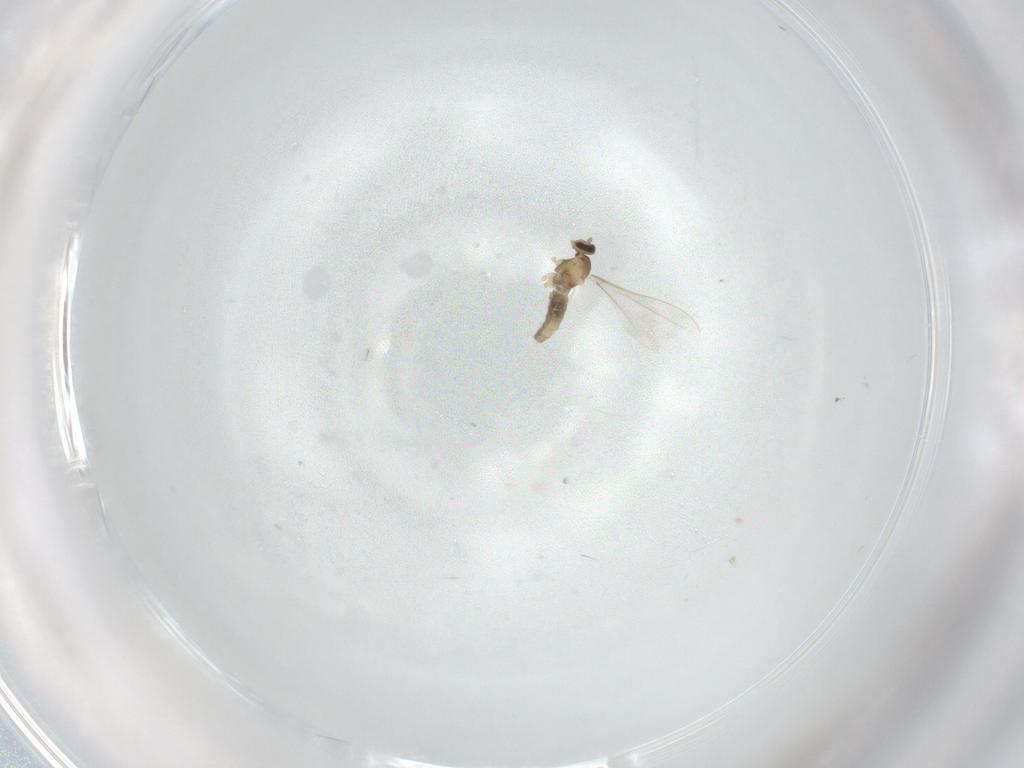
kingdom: Animalia
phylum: Arthropoda
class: Insecta
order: Diptera
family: Cecidomyiidae
